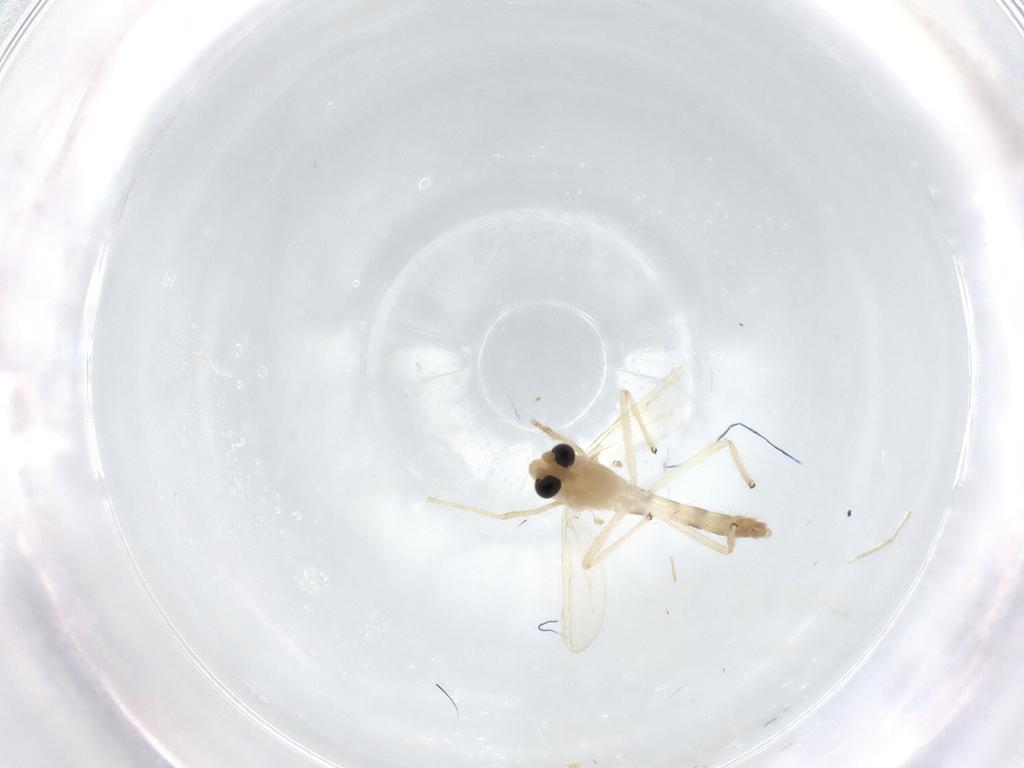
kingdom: Animalia
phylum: Arthropoda
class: Insecta
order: Diptera
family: Chironomidae
